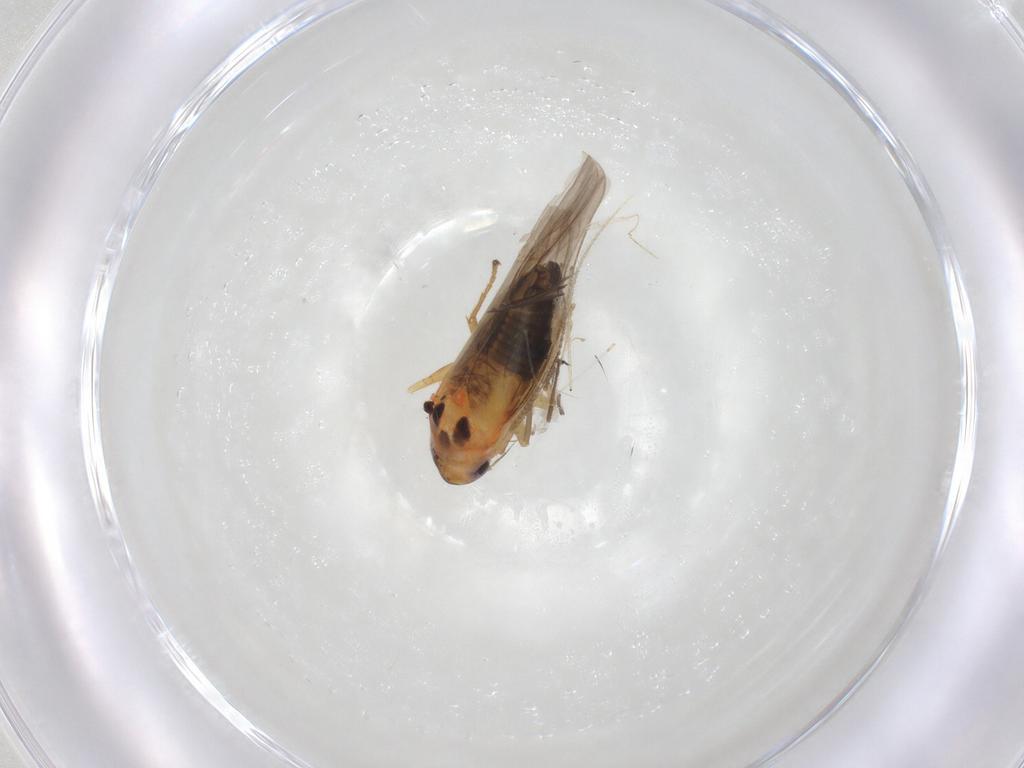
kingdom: Animalia
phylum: Arthropoda
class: Insecta
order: Hemiptera
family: Cicadellidae
